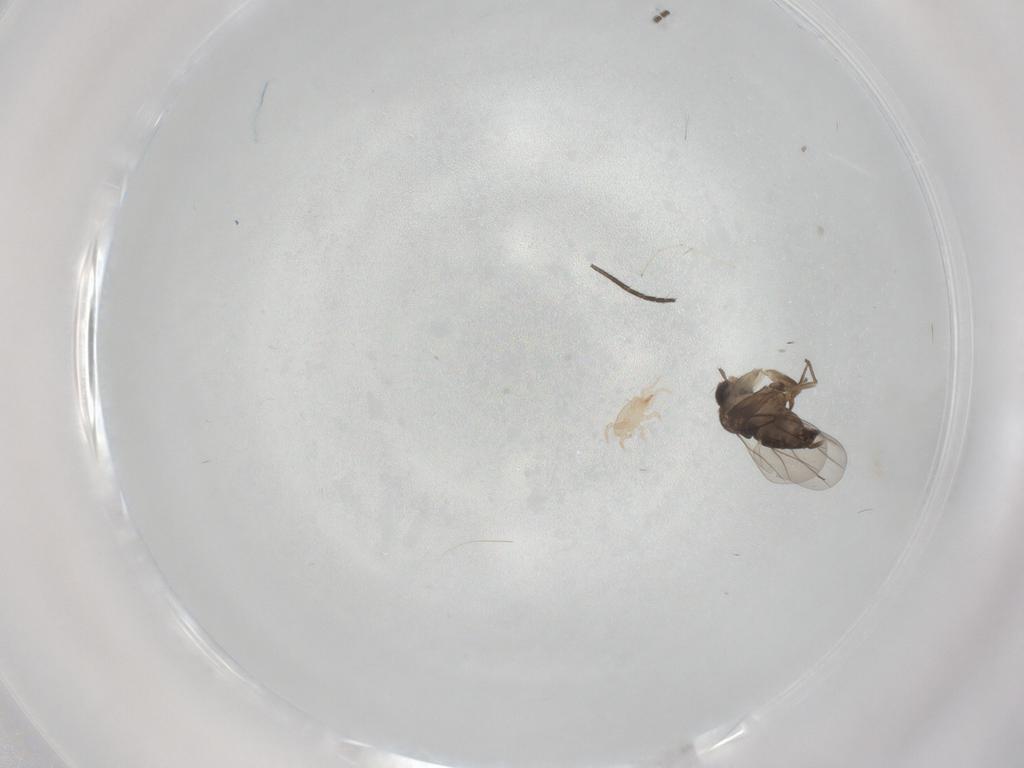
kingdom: Animalia
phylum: Arthropoda
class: Insecta
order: Diptera
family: Phoridae
